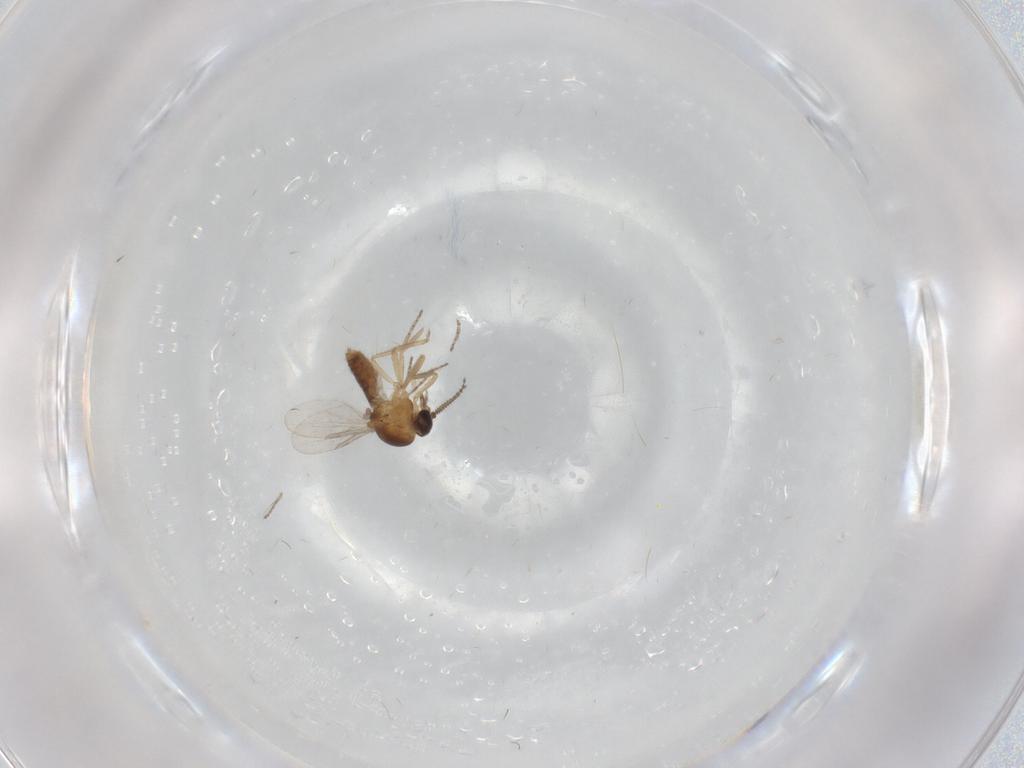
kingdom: Animalia
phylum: Arthropoda
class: Insecta
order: Diptera
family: Ceratopogonidae
